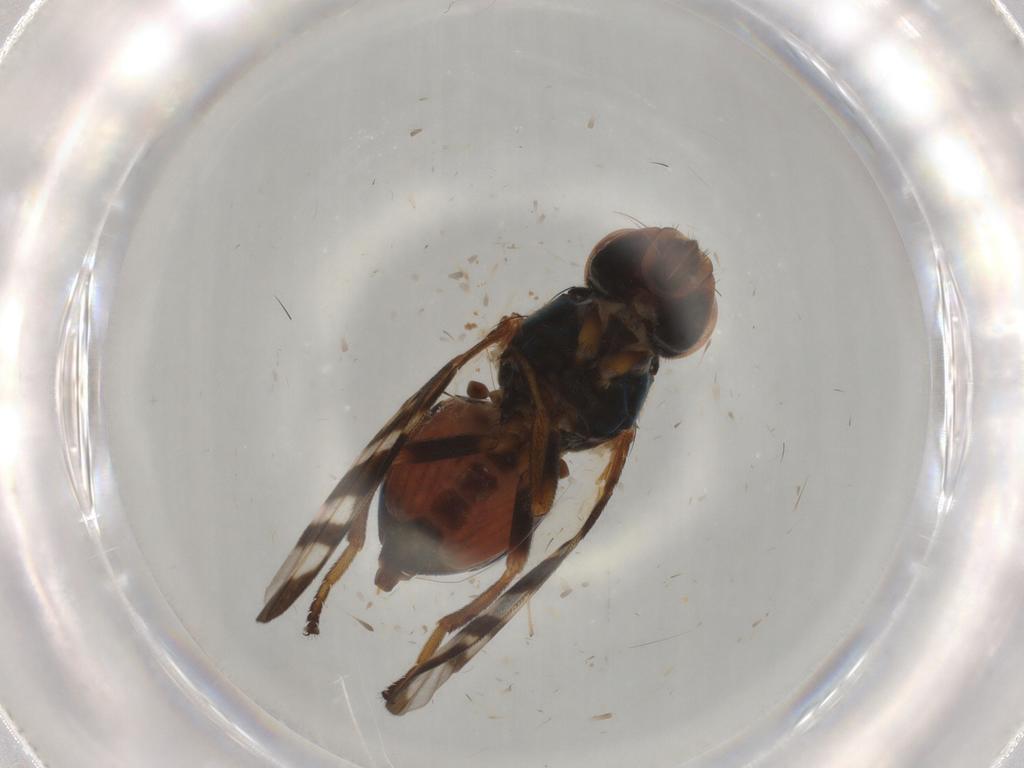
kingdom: Animalia
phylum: Arthropoda
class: Insecta
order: Diptera
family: Chironomidae
